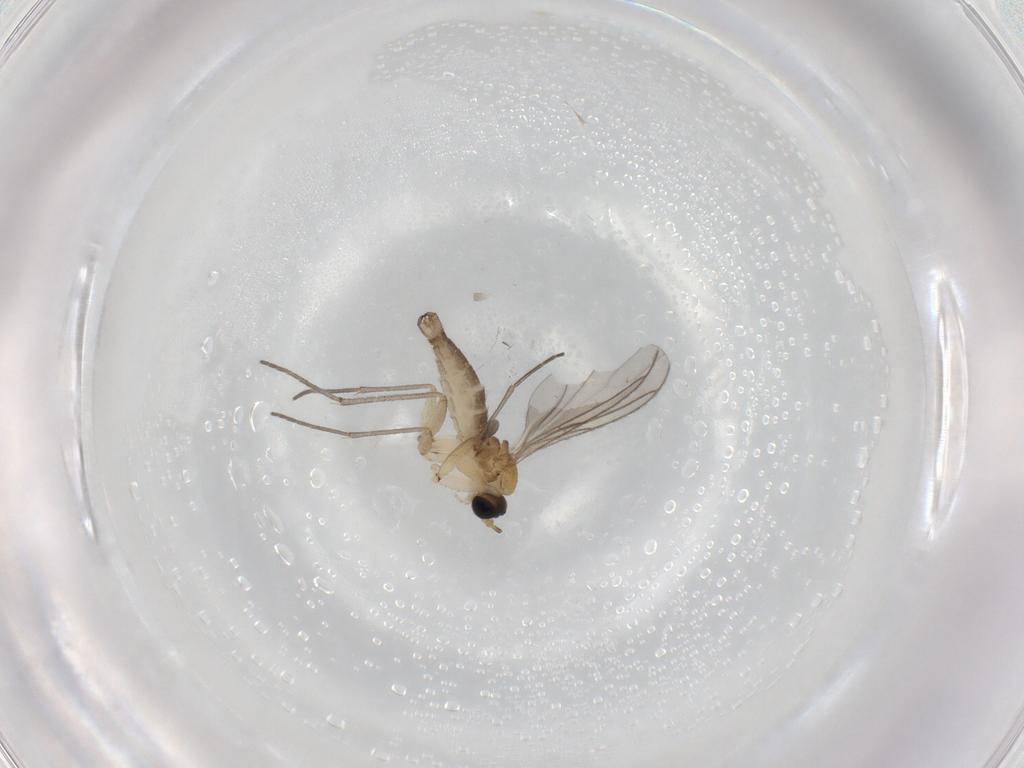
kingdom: Animalia
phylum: Arthropoda
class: Insecta
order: Diptera
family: Sciaridae
